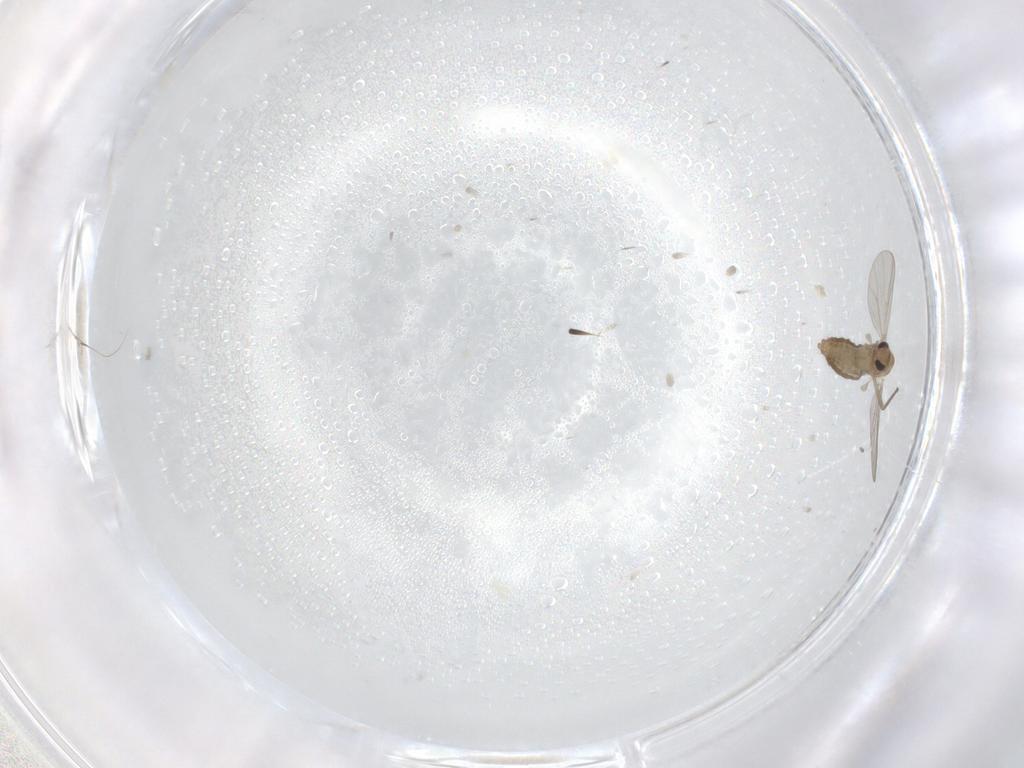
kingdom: Animalia
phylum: Arthropoda
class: Insecta
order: Diptera
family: Chironomidae
